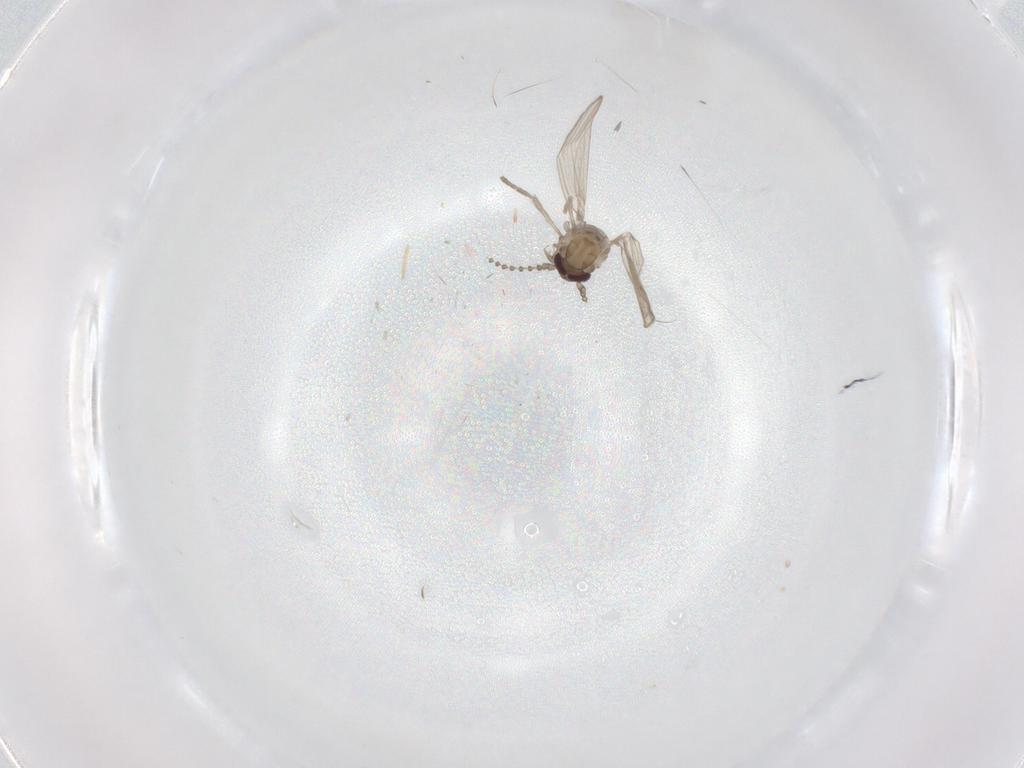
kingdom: Animalia
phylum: Arthropoda
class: Insecta
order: Diptera
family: Psychodidae
